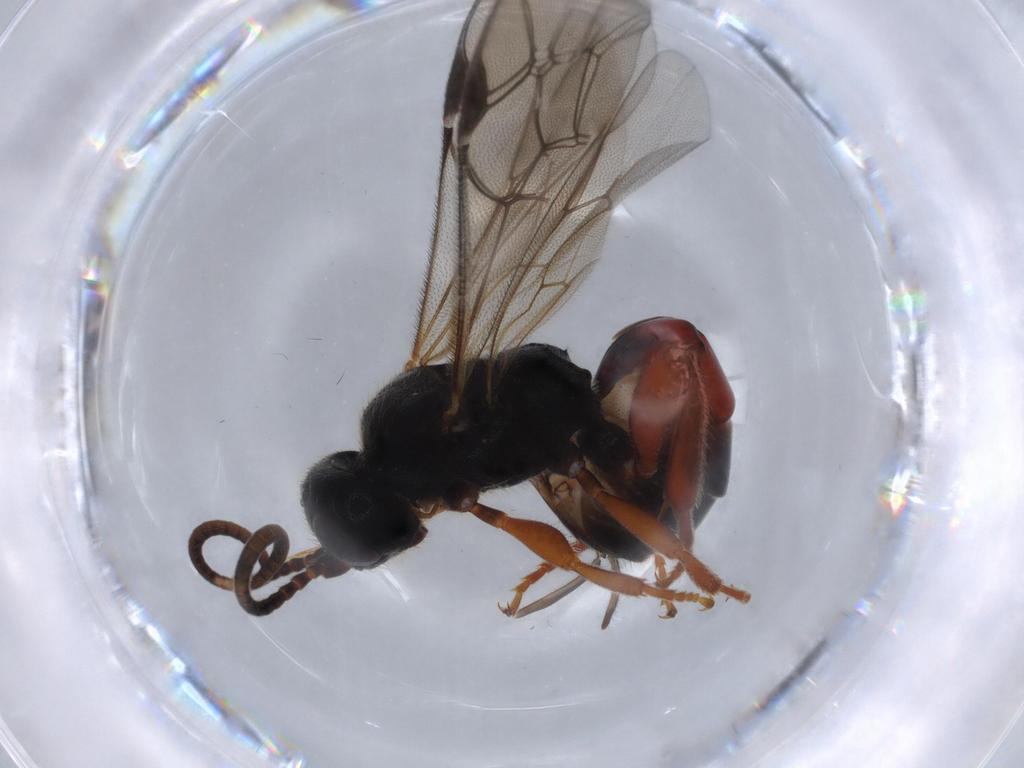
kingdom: Animalia
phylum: Arthropoda
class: Insecta
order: Hymenoptera
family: Ichneumonidae
